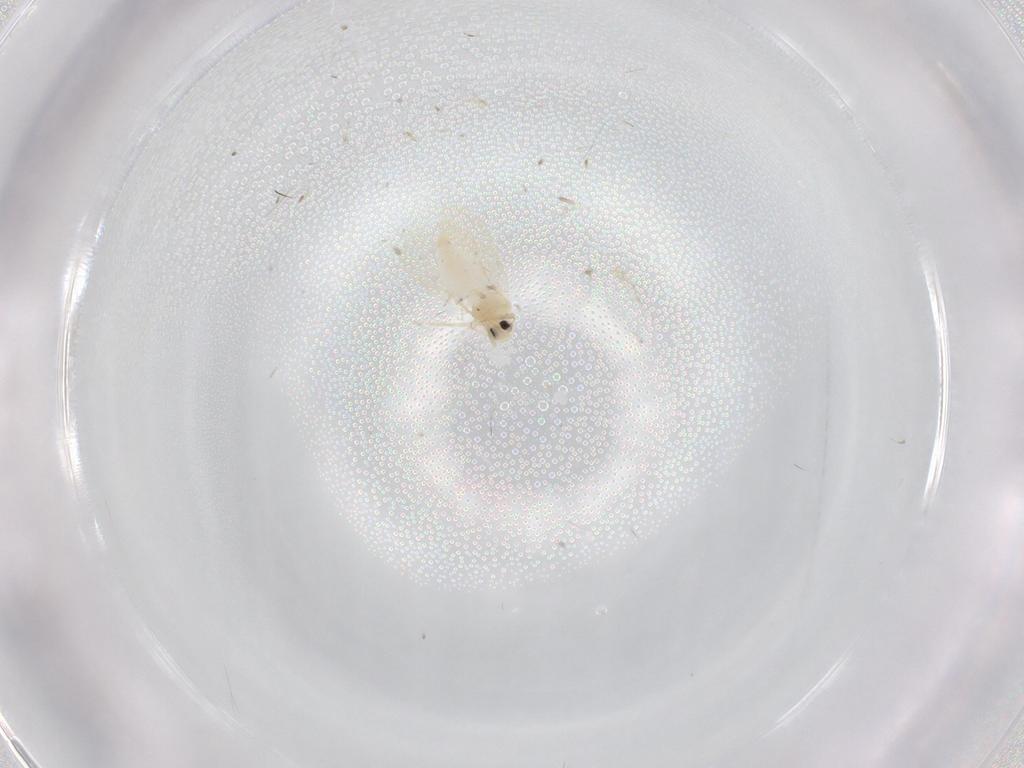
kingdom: Animalia
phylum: Arthropoda
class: Insecta
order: Hemiptera
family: Aleyrodidae
